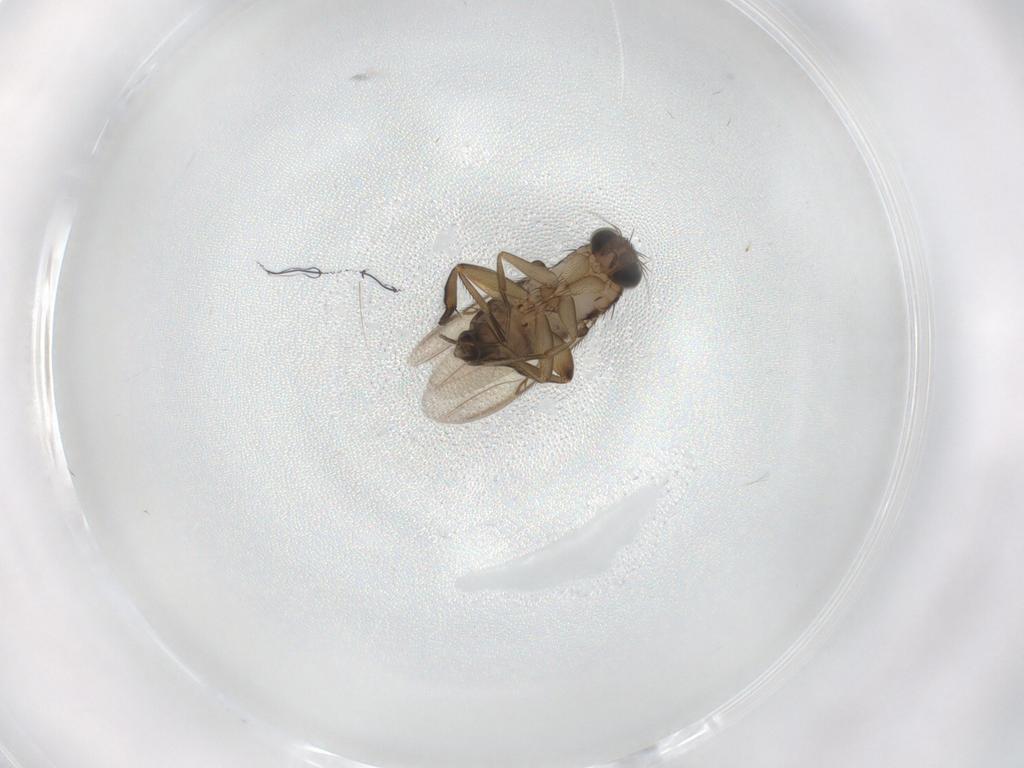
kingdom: Animalia
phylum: Arthropoda
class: Insecta
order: Diptera
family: Phoridae
